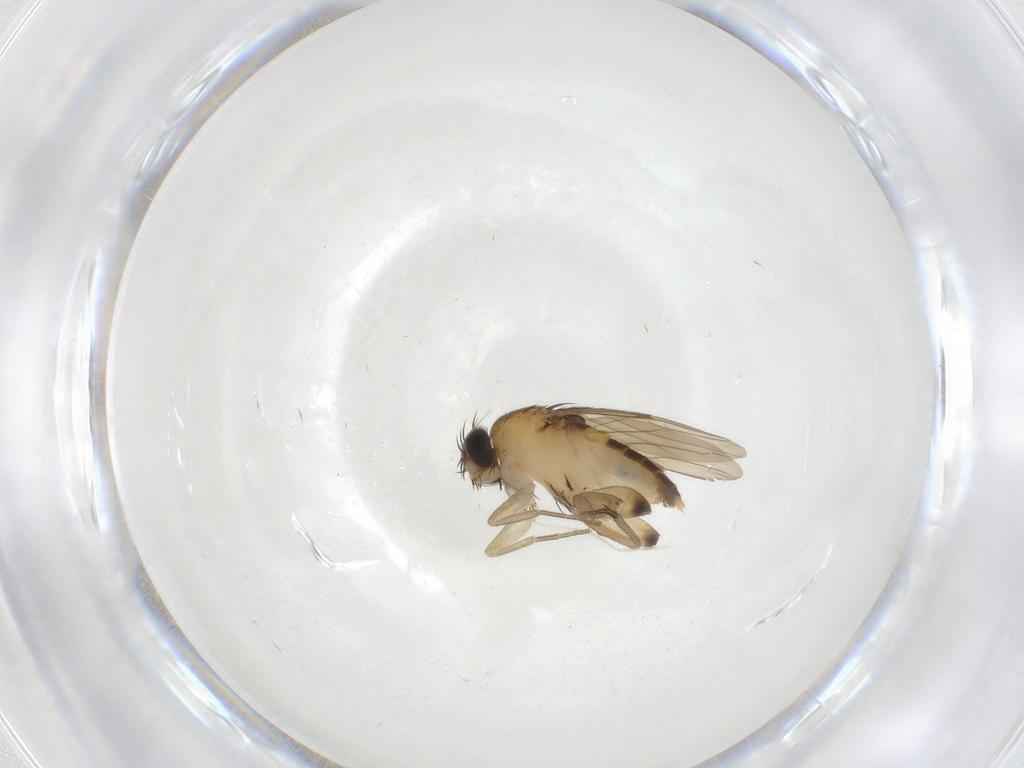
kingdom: Animalia
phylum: Arthropoda
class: Insecta
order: Diptera
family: Phoridae
